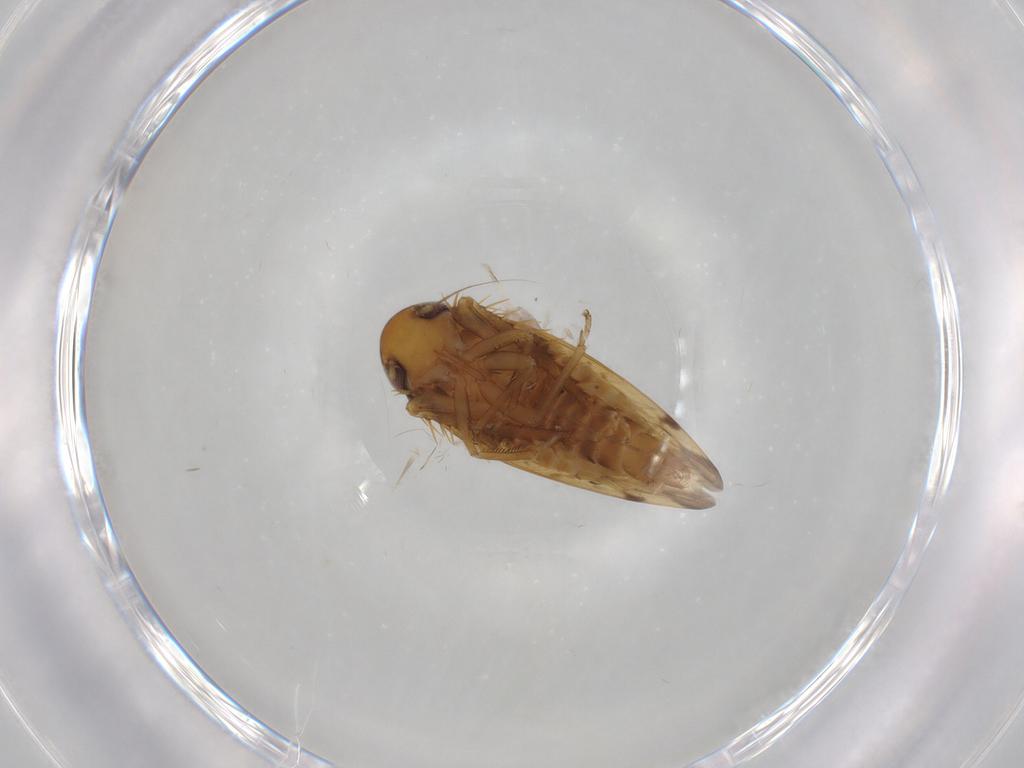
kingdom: Animalia
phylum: Arthropoda
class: Insecta
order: Hemiptera
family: Cicadellidae
